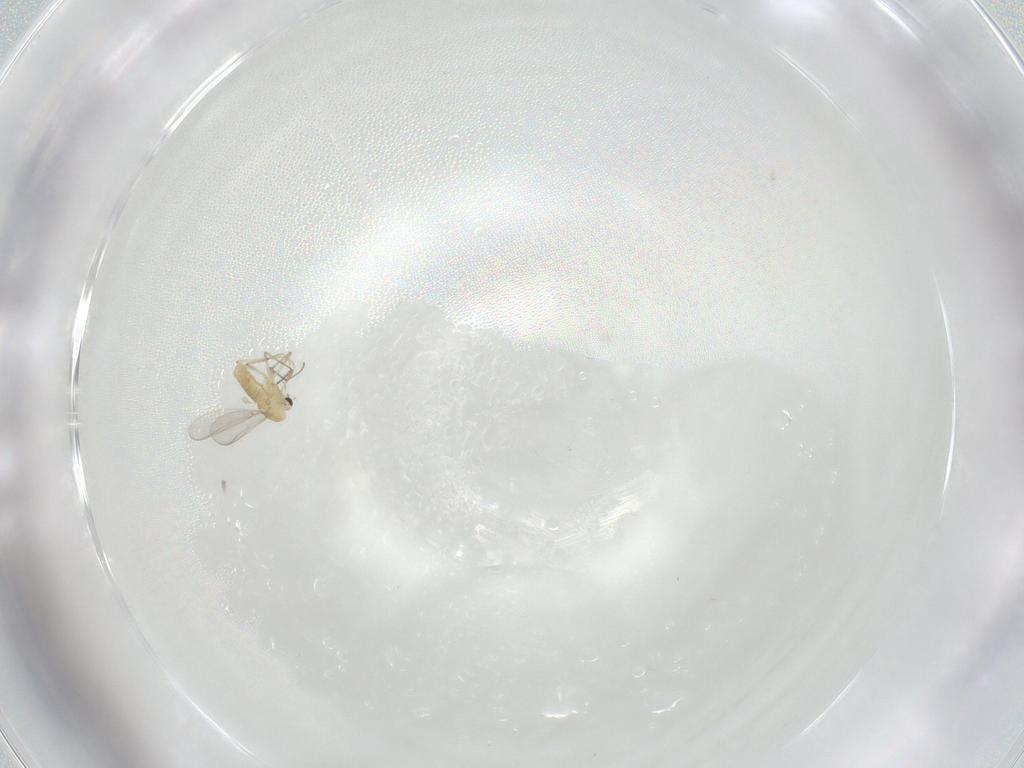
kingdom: Animalia
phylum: Arthropoda
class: Insecta
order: Diptera
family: Chironomidae
